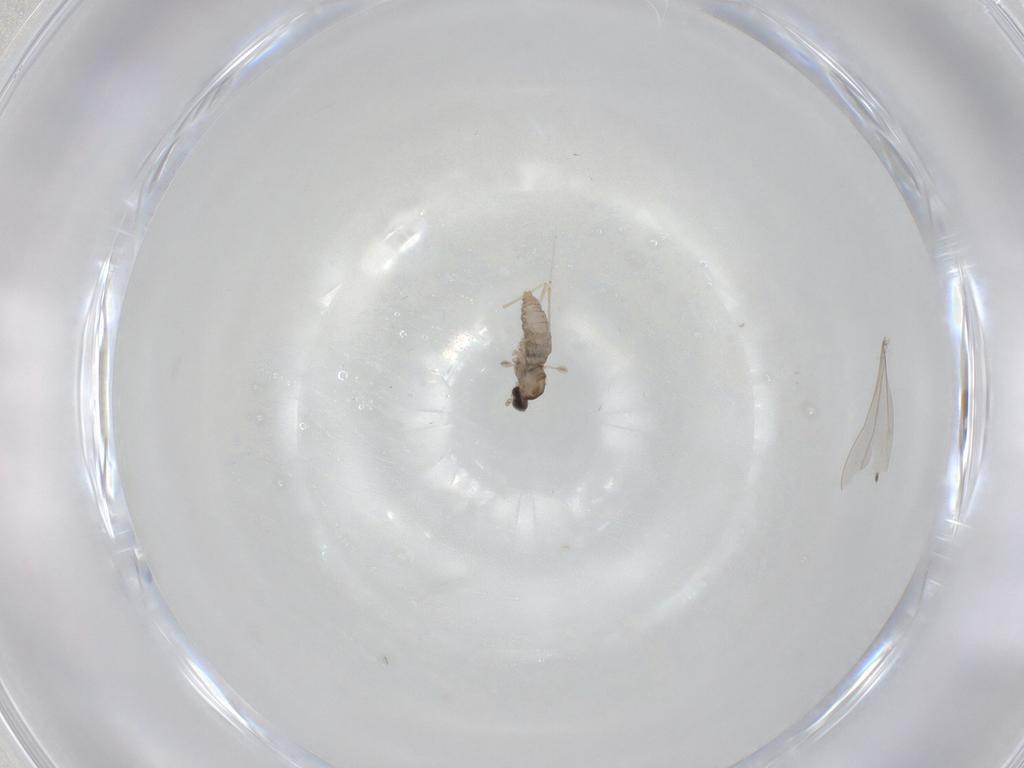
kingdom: Animalia
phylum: Arthropoda
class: Insecta
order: Diptera
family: Cecidomyiidae
